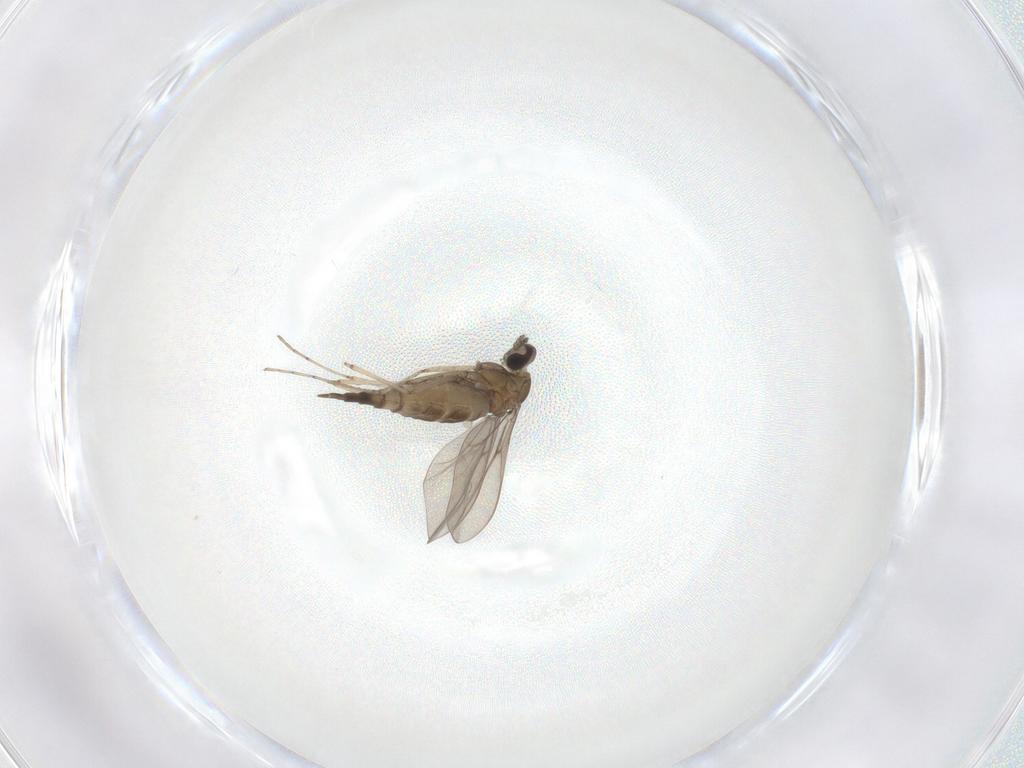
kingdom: Animalia
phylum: Arthropoda
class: Insecta
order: Diptera
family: Cecidomyiidae
